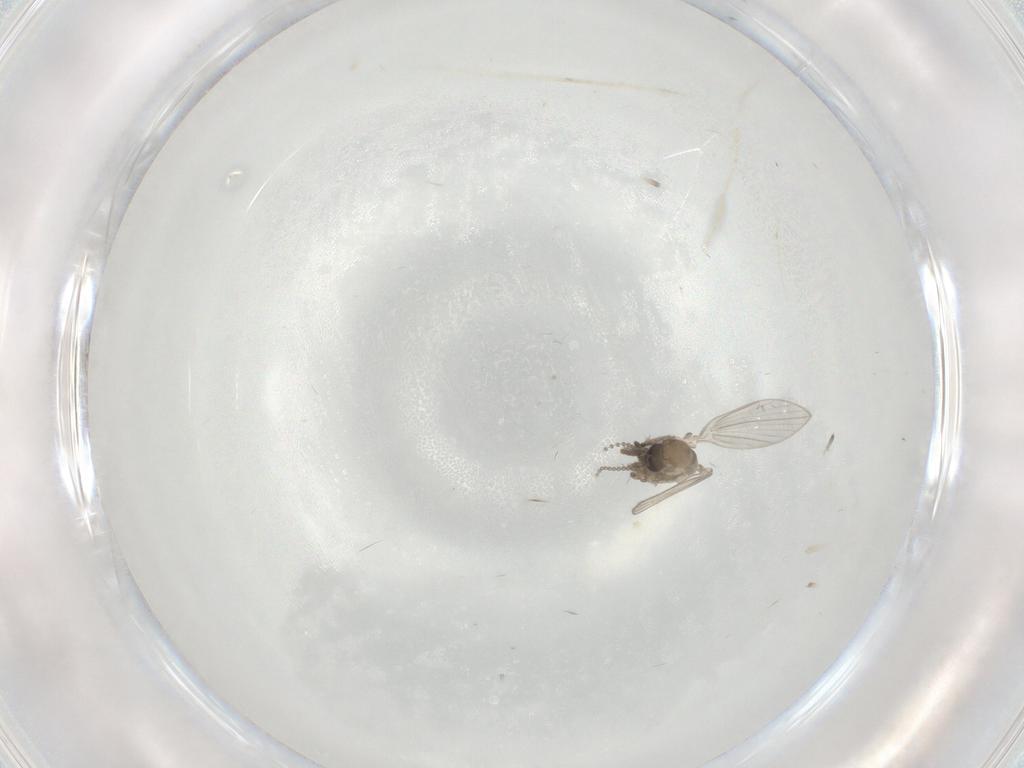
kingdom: Animalia
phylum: Arthropoda
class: Insecta
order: Diptera
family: Psychodidae
